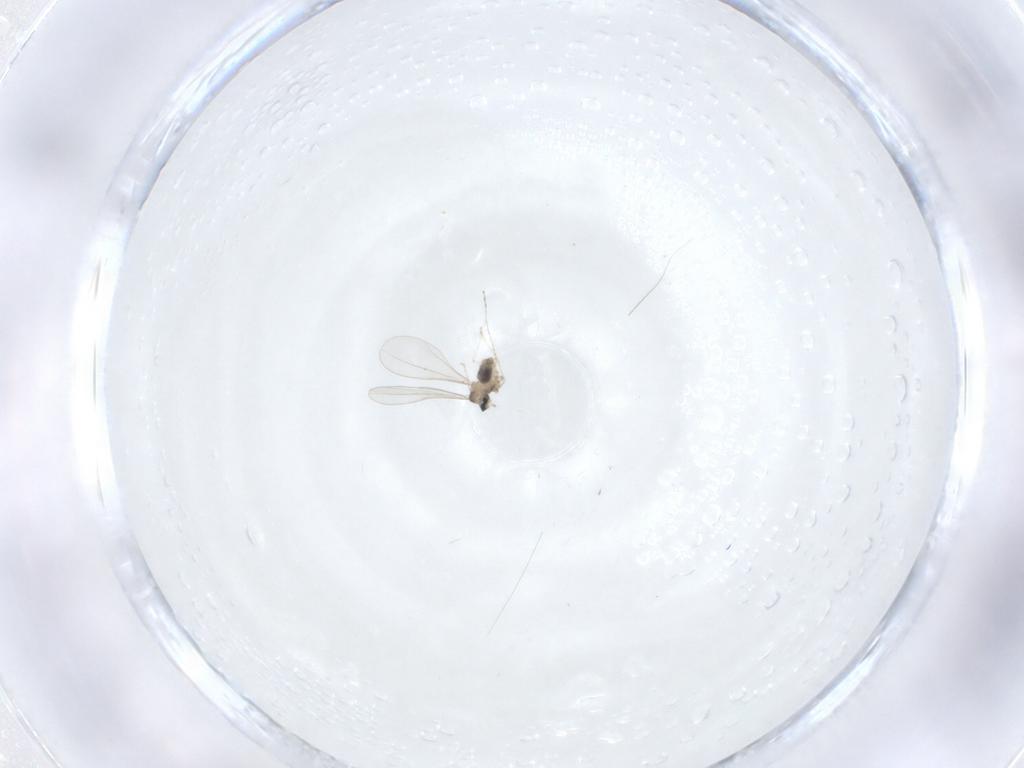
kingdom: Animalia
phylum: Arthropoda
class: Insecta
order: Diptera
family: Cecidomyiidae
